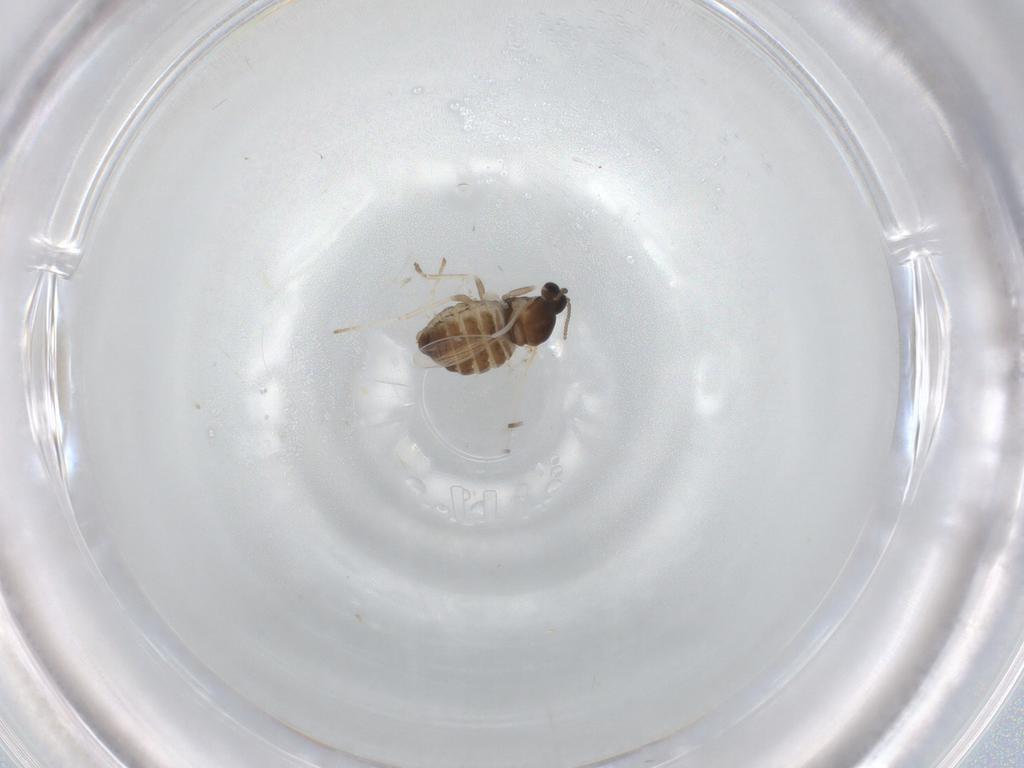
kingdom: Animalia
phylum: Arthropoda
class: Insecta
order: Diptera
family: Cecidomyiidae
